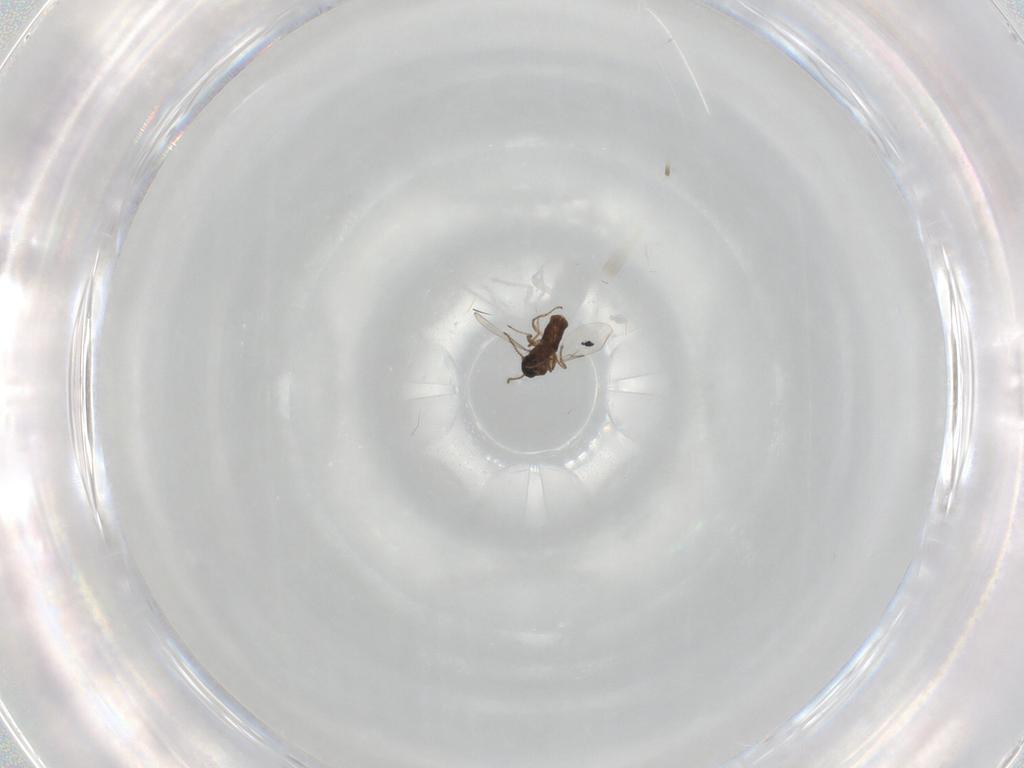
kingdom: Animalia
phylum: Arthropoda
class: Insecta
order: Diptera
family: Ceratopogonidae
